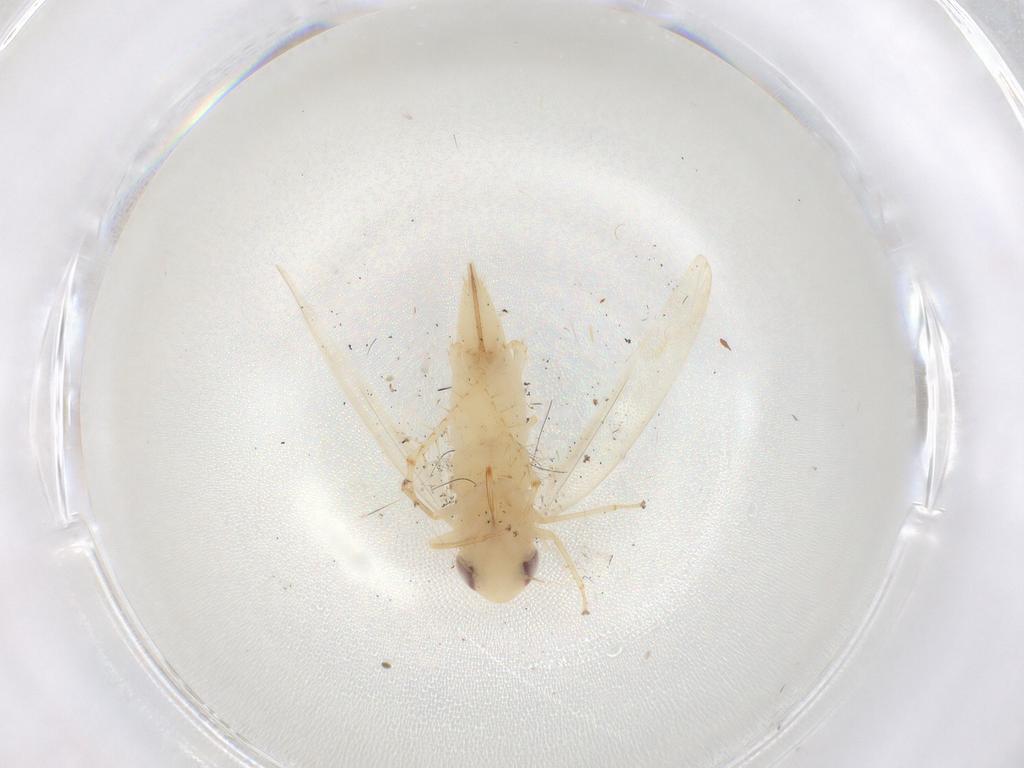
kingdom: Animalia
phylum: Arthropoda
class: Insecta
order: Hemiptera
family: Cicadellidae
